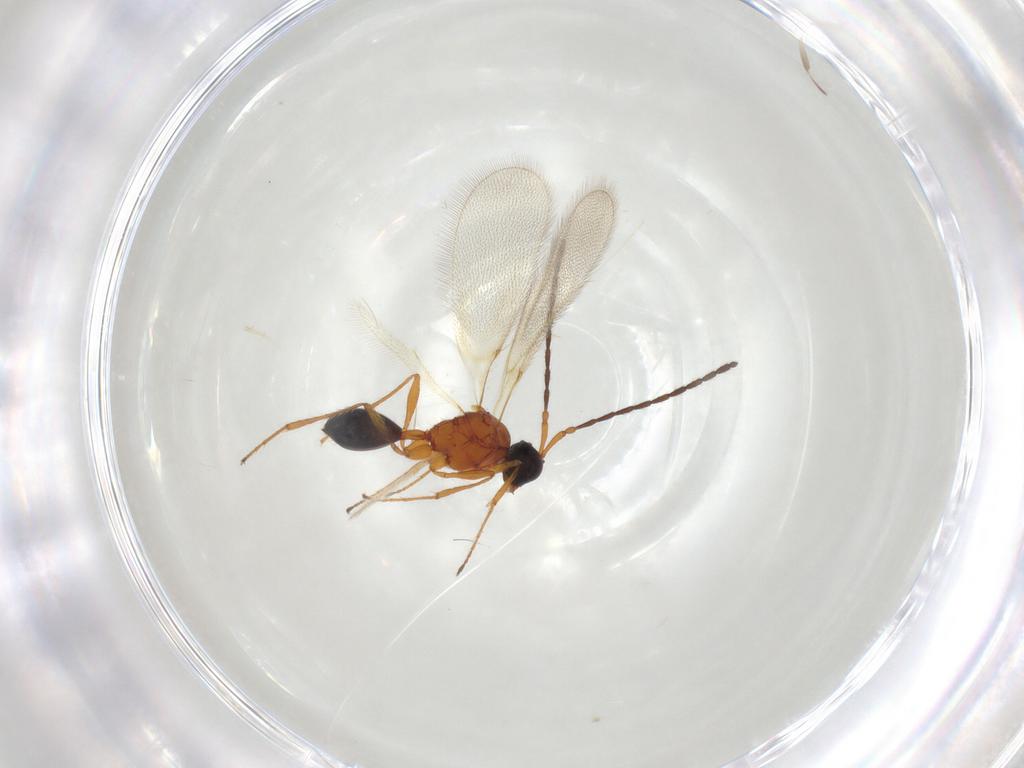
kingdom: Animalia
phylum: Arthropoda
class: Insecta
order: Hymenoptera
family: Diapriidae
